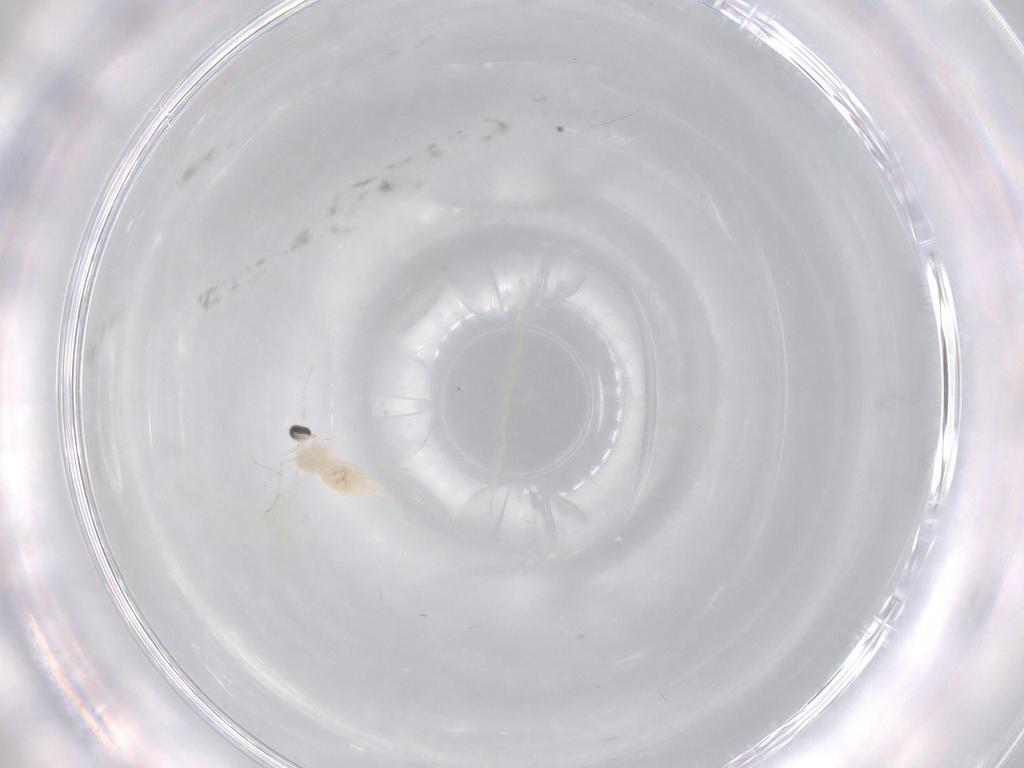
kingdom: Animalia
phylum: Arthropoda
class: Insecta
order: Diptera
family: Cecidomyiidae
